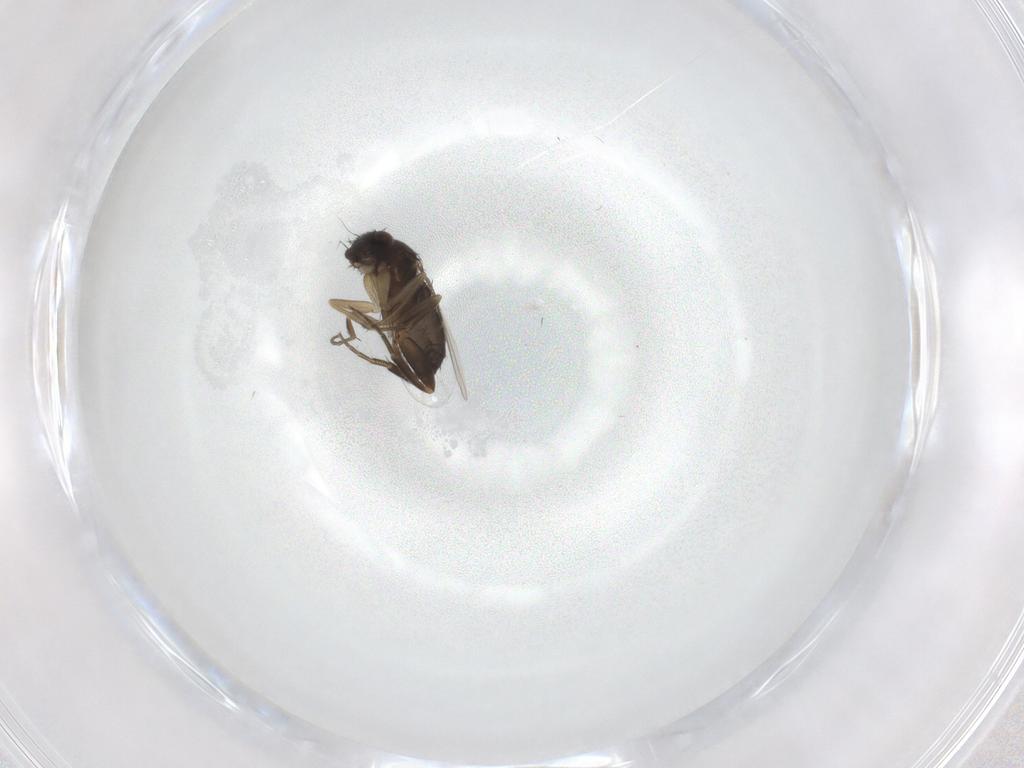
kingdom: Animalia
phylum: Arthropoda
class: Insecta
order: Diptera
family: Phoridae
